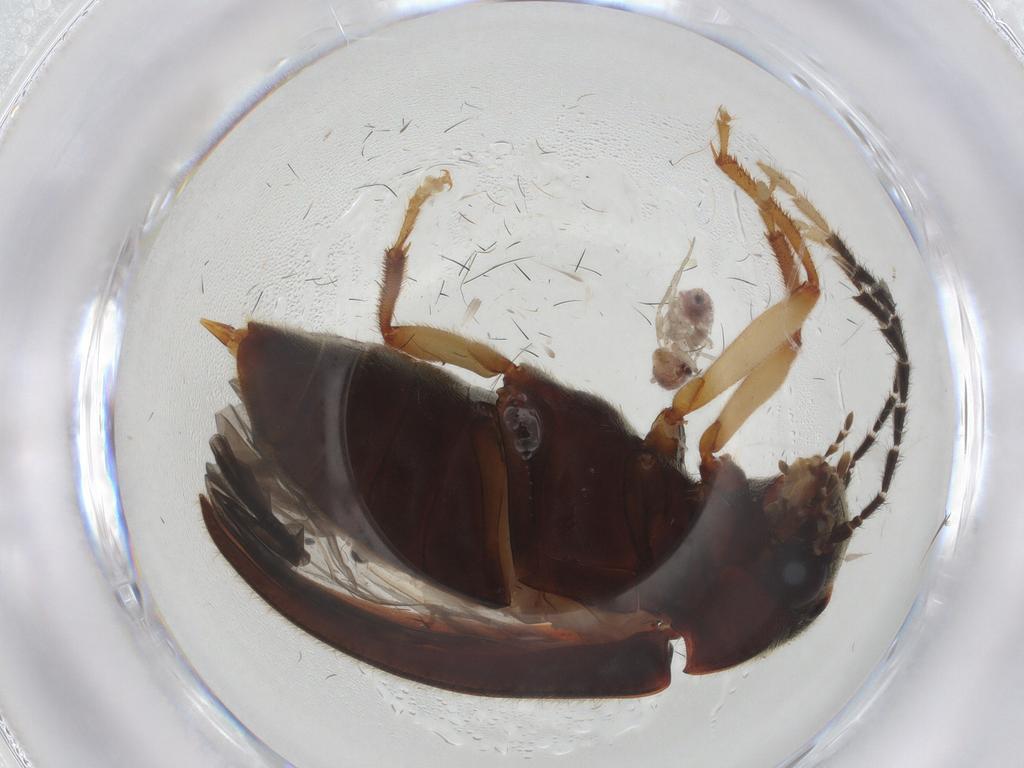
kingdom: Animalia
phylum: Arthropoda
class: Insecta
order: Coleoptera
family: Ptilodactylidae
